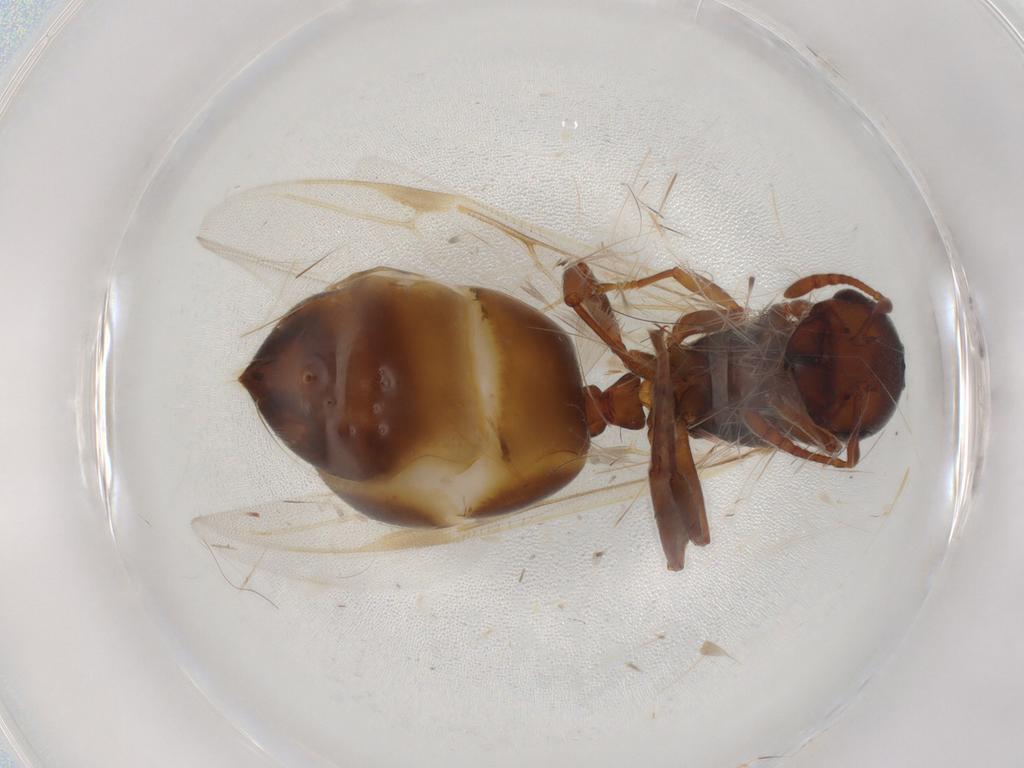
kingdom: Animalia
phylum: Arthropoda
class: Insecta
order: Hymenoptera
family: Formicidae
